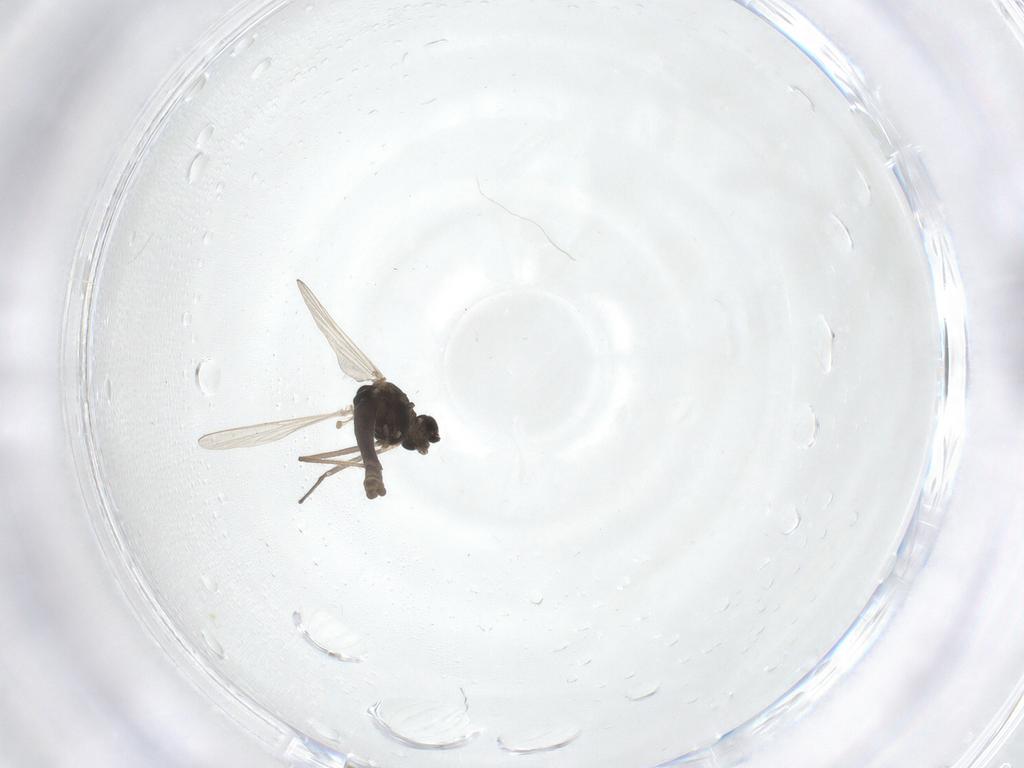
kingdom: Animalia
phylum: Arthropoda
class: Insecta
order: Diptera
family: Chironomidae
